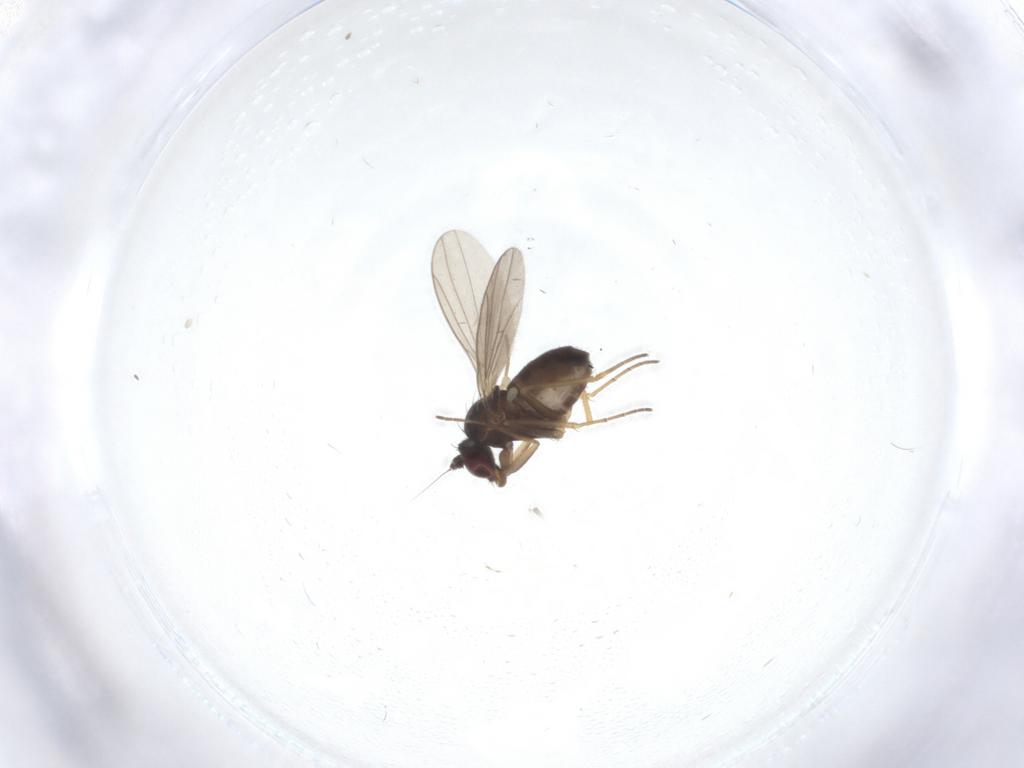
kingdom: Animalia
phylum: Arthropoda
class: Insecta
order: Diptera
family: Dolichopodidae
